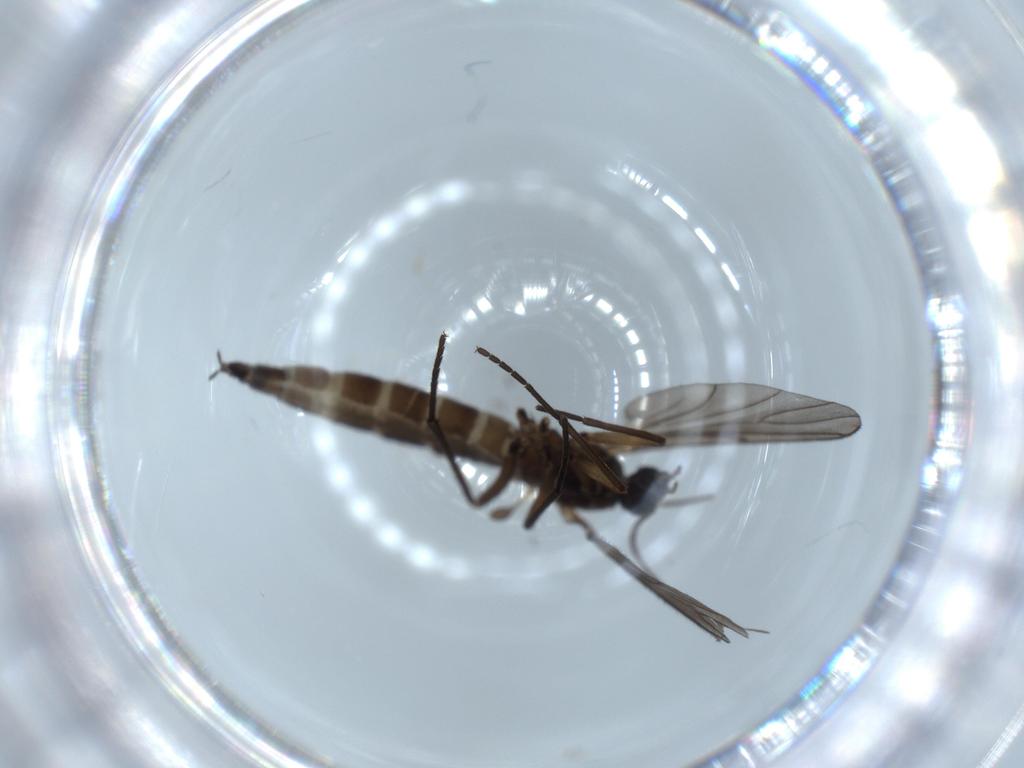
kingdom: Animalia
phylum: Arthropoda
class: Insecta
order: Diptera
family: Sciaridae
